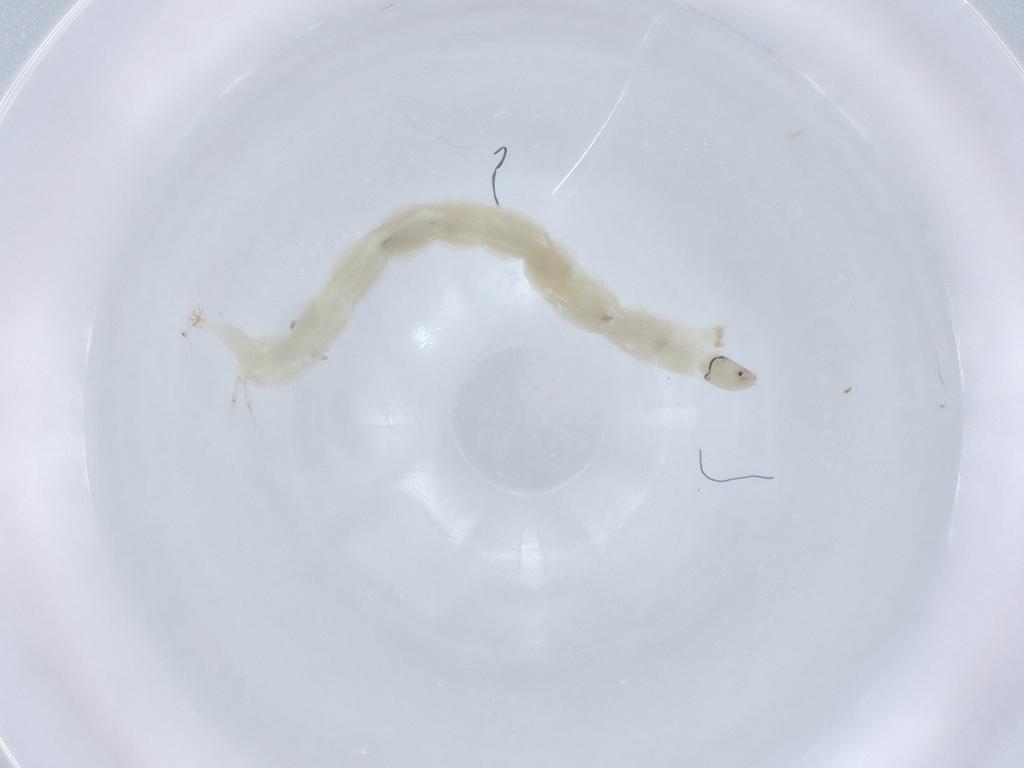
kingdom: Animalia
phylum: Arthropoda
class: Insecta
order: Diptera
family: Chironomidae
